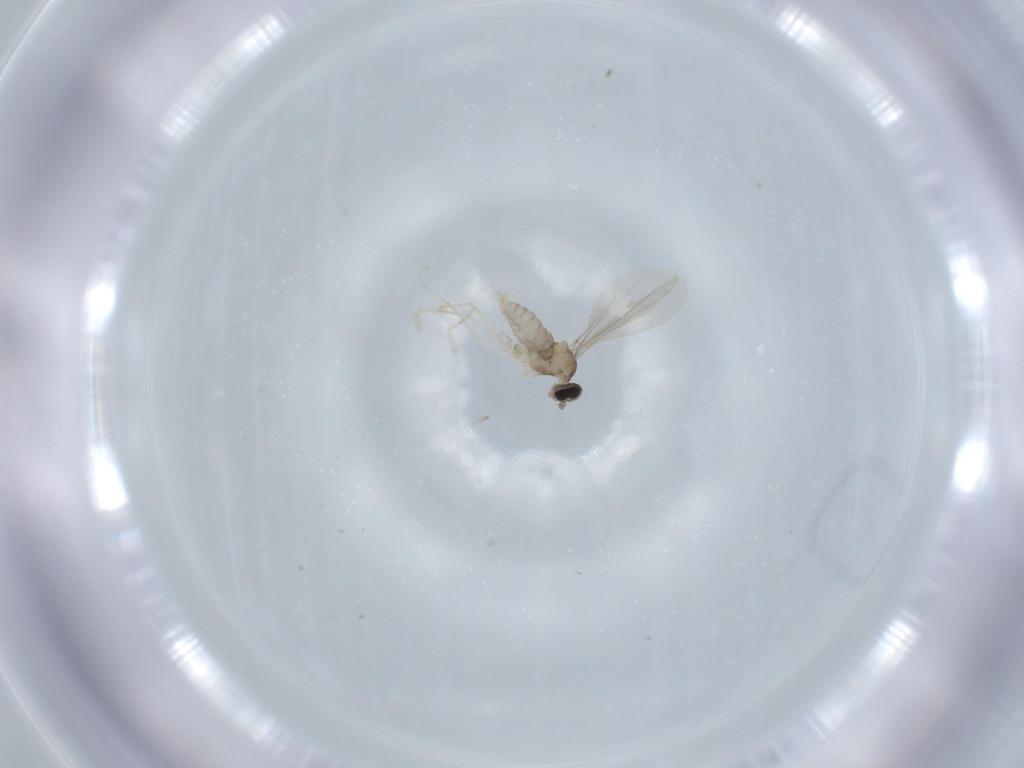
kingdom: Animalia
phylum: Arthropoda
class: Insecta
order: Diptera
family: Cecidomyiidae
